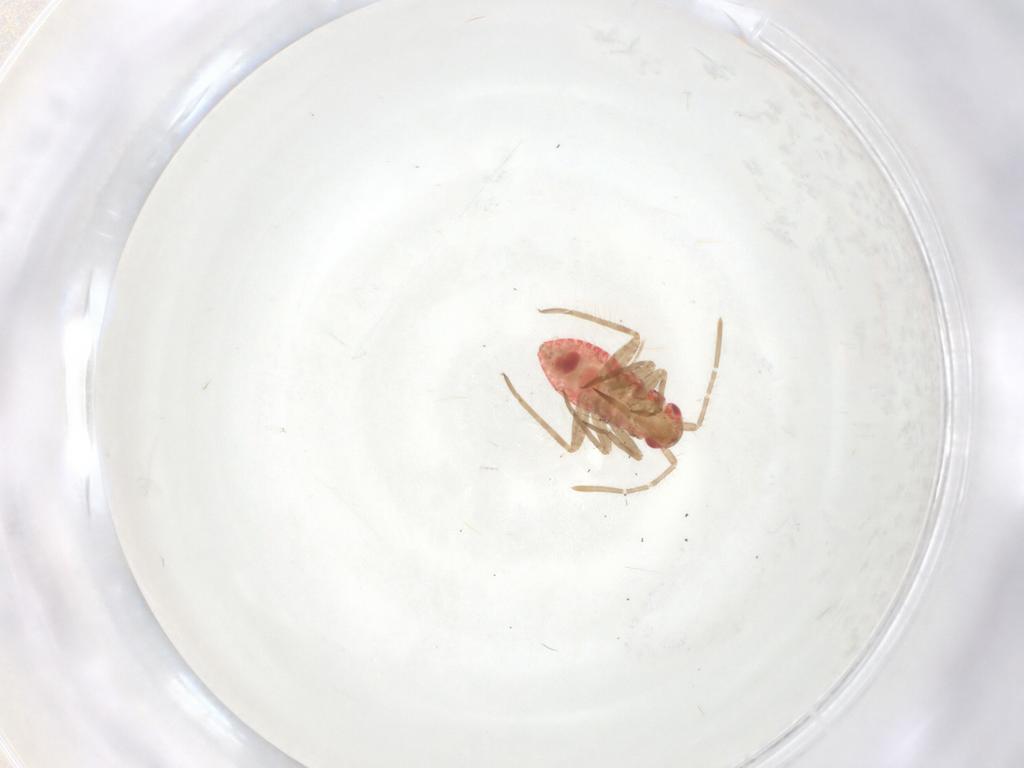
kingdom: Animalia
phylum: Arthropoda
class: Insecta
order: Hemiptera
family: Miridae
